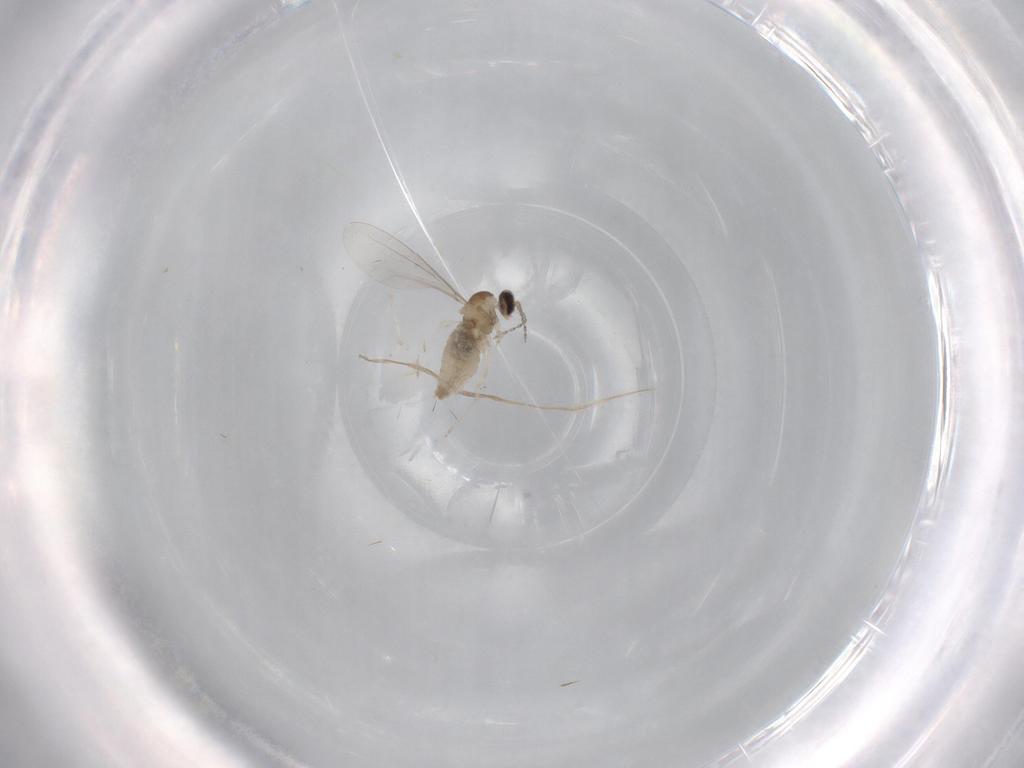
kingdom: Animalia
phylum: Arthropoda
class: Insecta
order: Diptera
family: Cecidomyiidae
